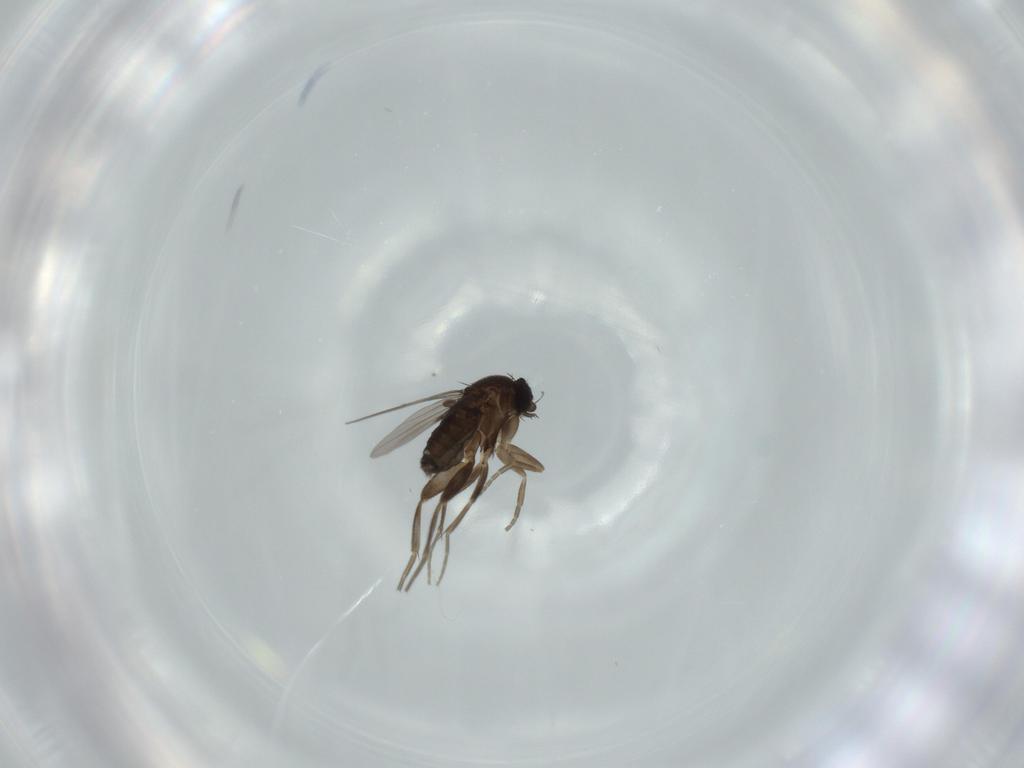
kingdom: Animalia
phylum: Arthropoda
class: Insecta
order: Diptera
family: Phoridae
